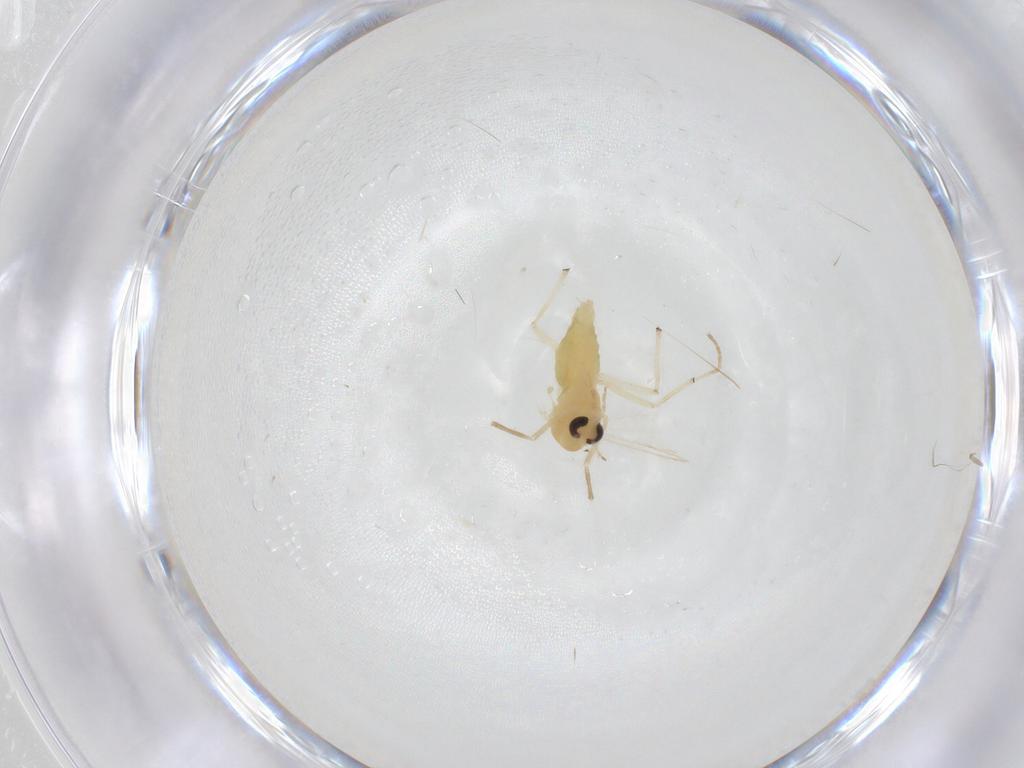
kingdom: Animalia
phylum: Arthropoda
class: Insecta
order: Diptera
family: Chironomidae
